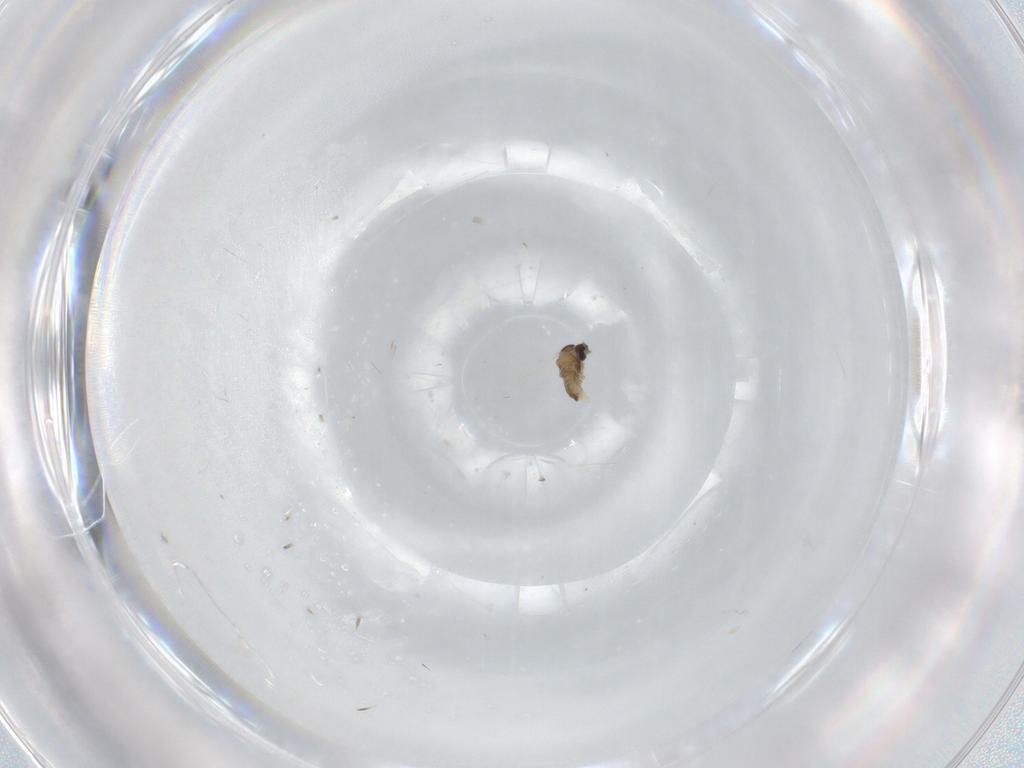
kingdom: Animalia
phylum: Arthropoda
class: Insecta
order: Diptera
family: Cecidomyiidae
